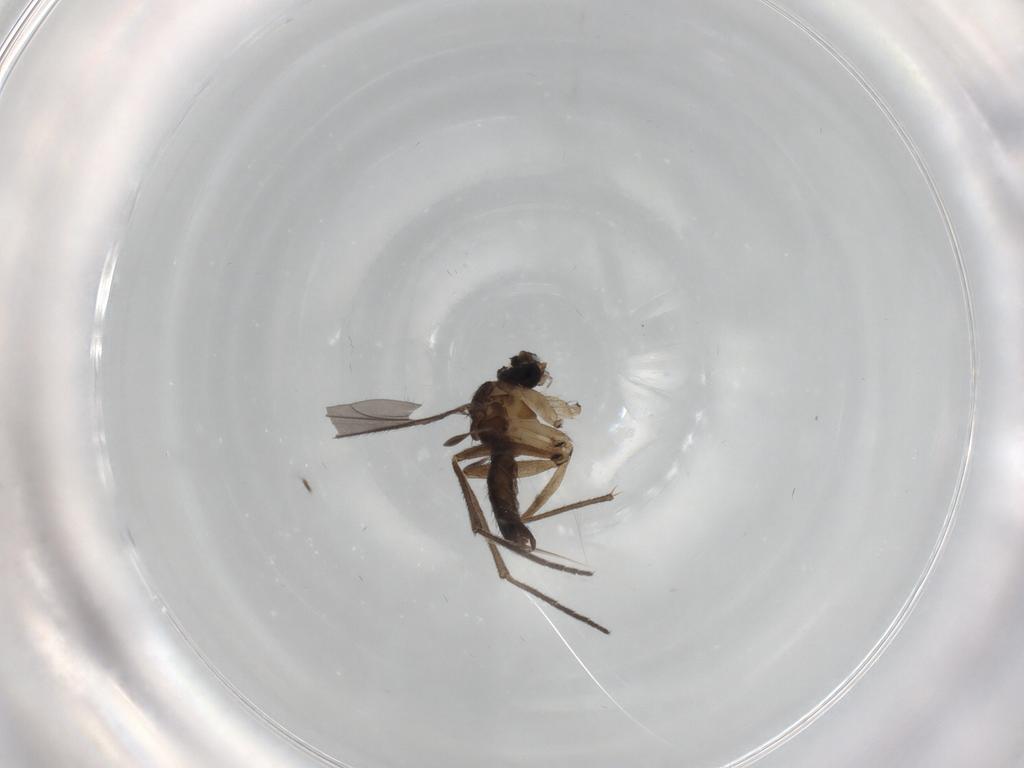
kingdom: Animalia
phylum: Arthropoda
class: Insecta
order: Diptera
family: Sciaridae
